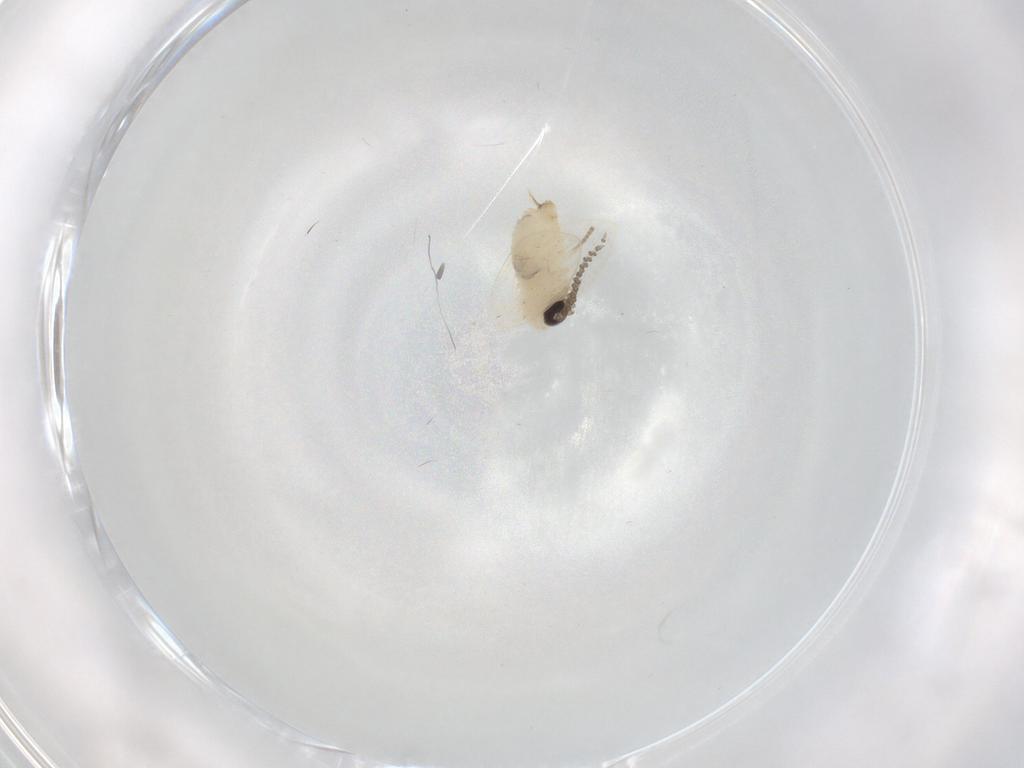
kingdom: Animalia
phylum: Arthropoda
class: Insecta
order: Diptera
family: Psychodidae
